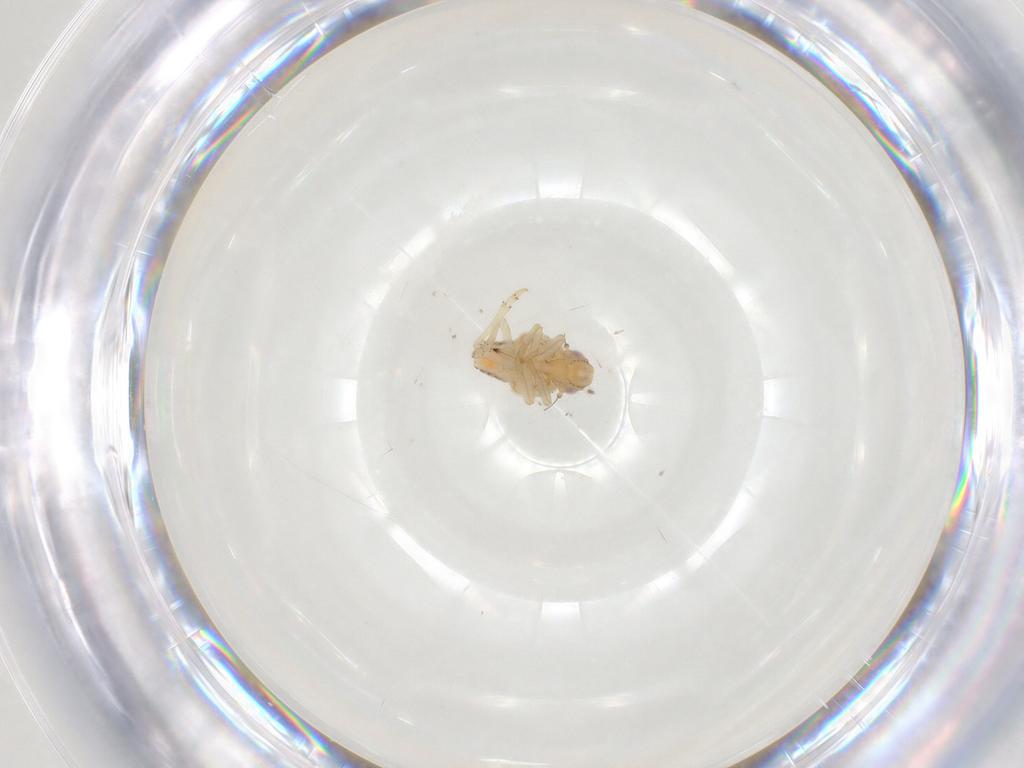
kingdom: Animalia
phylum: Arthropoda
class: Insecta
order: Hemiptera
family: Tropiduchidae
